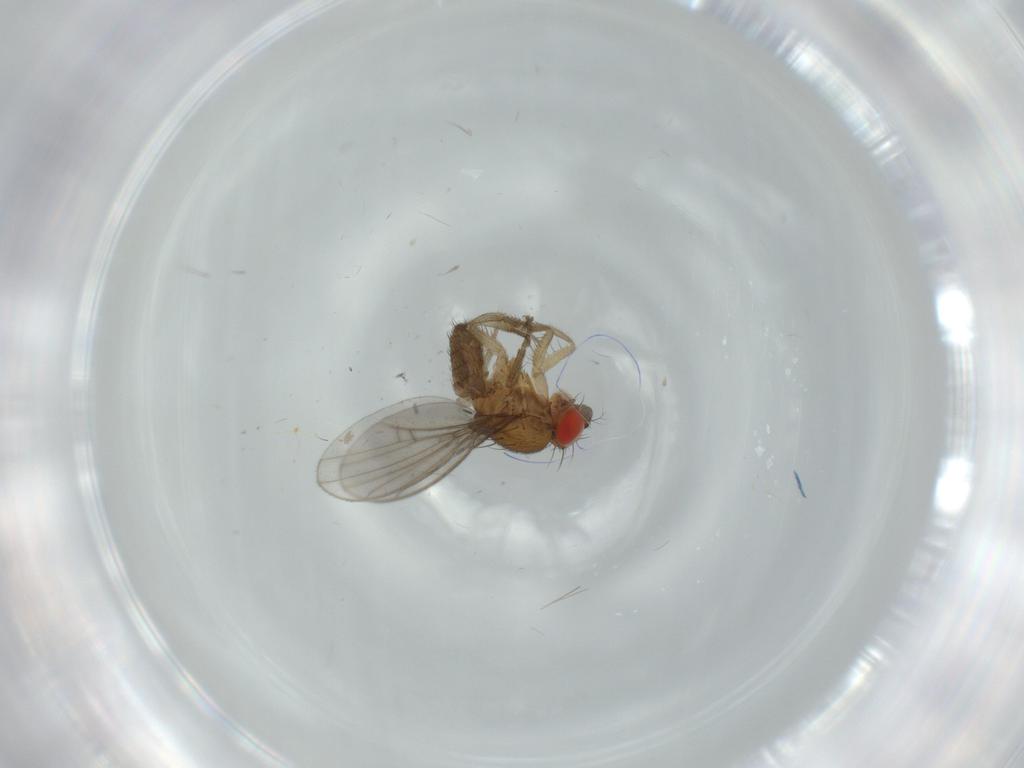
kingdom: Animalia
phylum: Arthropoda
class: Insecta
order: Diptera
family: Drosophilidae
